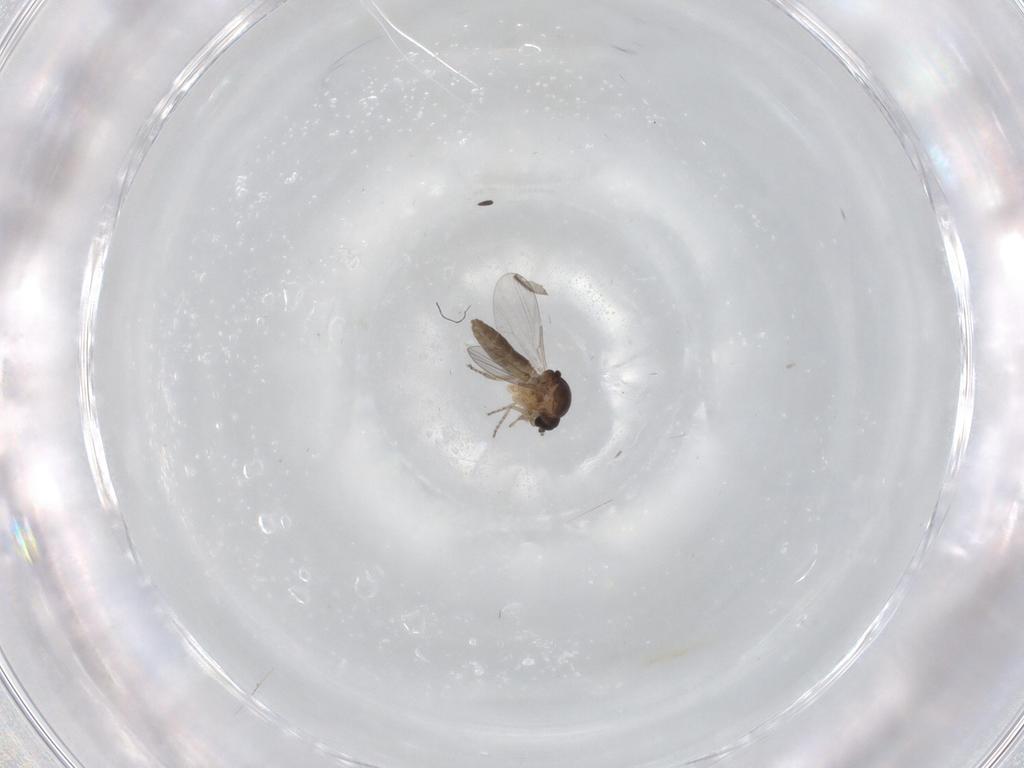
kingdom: Animalia
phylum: Arthropoda
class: Insecta
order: Diptera
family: Ceratopogonidae
